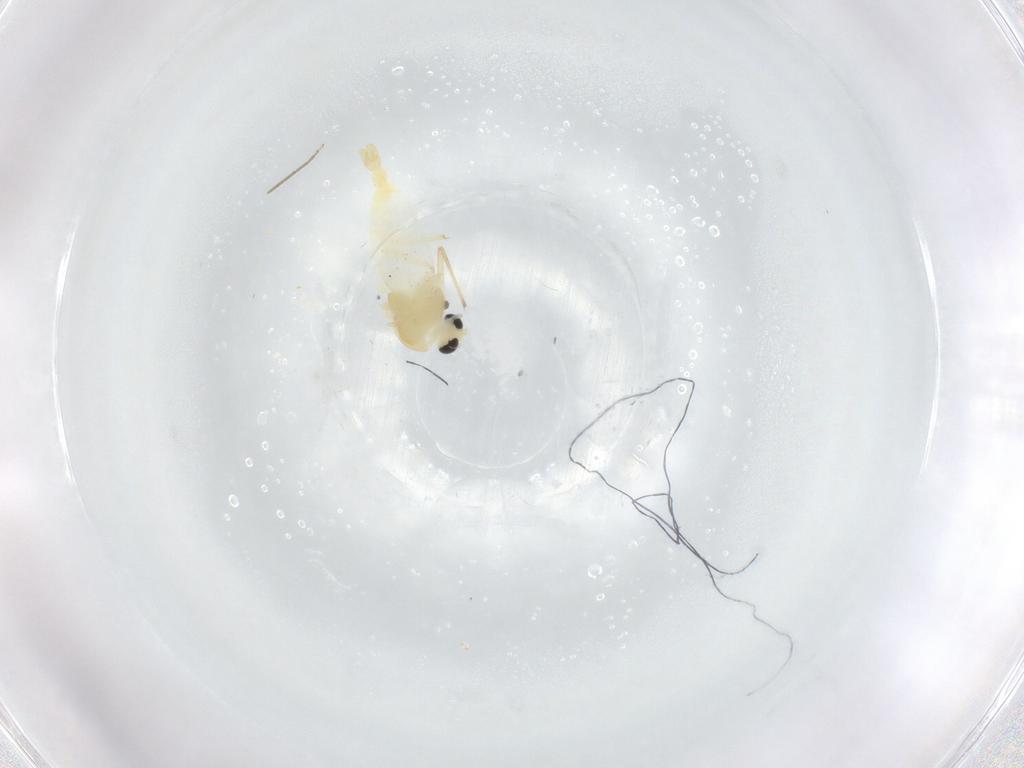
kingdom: Animalia
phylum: Arthropoda
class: Insecta
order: Diptera
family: Chironomidae
